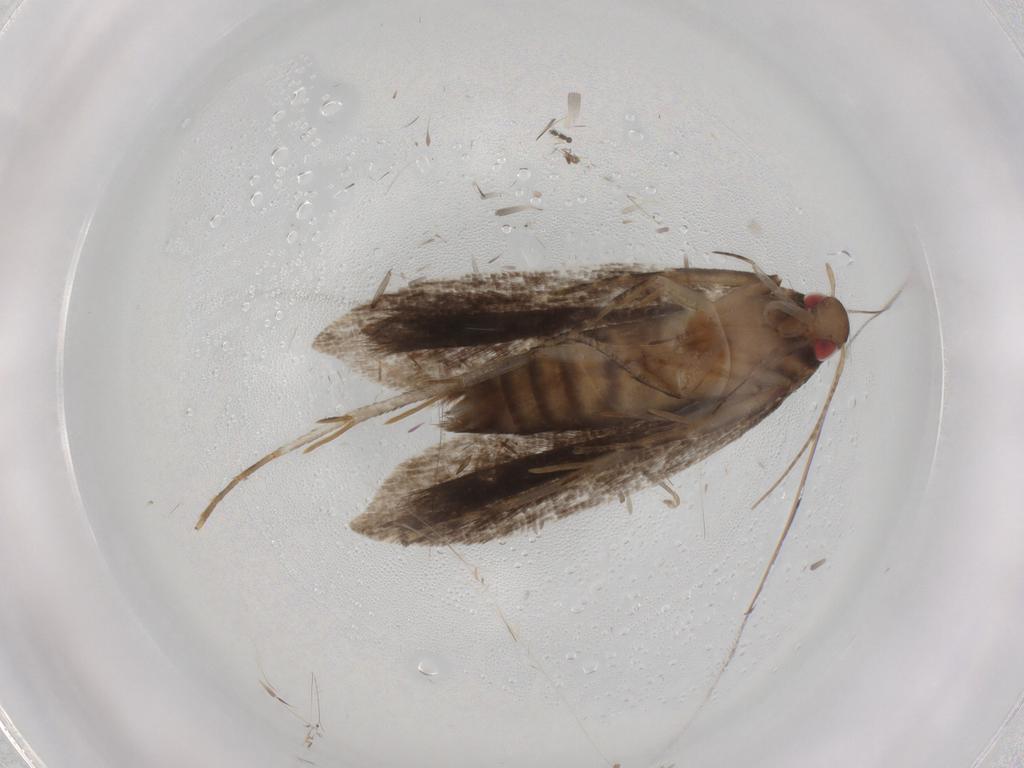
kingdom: Animalia
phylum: Arthropoda
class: Insecta
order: Lepidoptera
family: Gelechiidae
